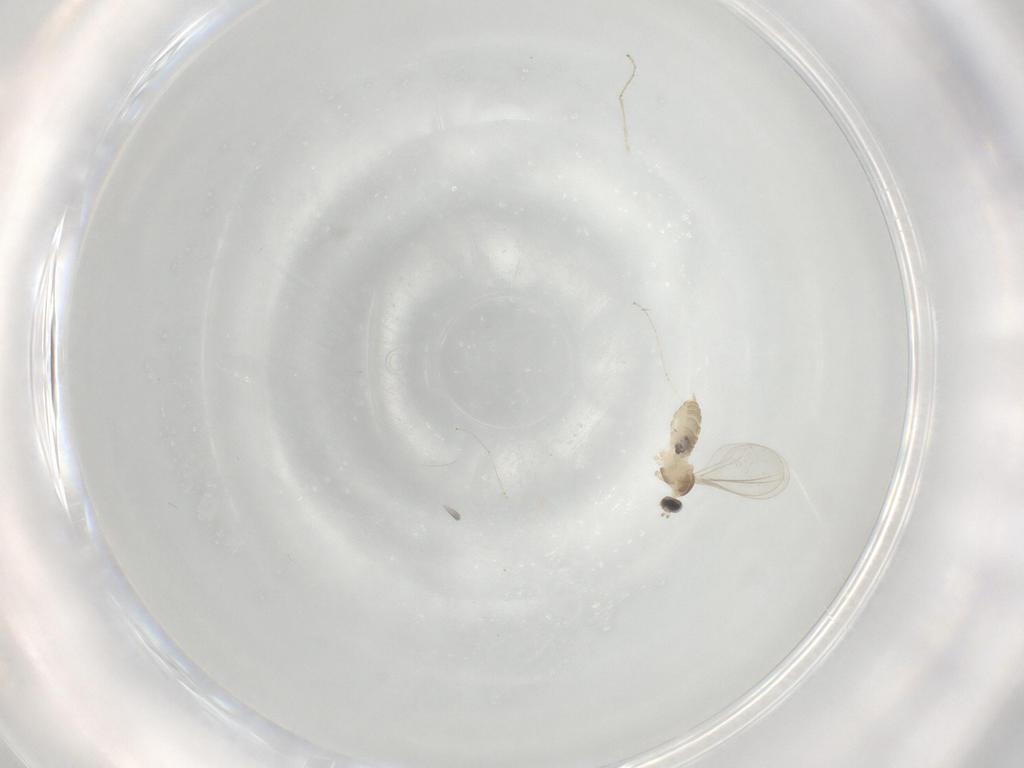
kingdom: Animalia
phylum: Arthropoda
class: Insecta
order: Diptera
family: Cecidomyiidae
